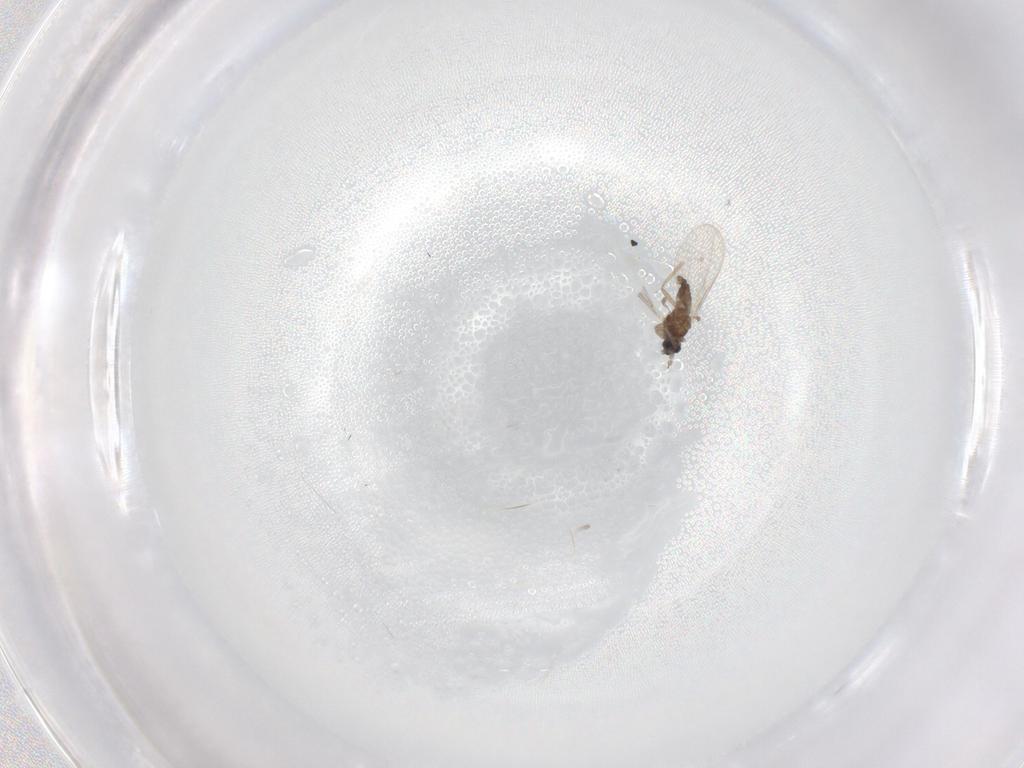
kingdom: Animalia
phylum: Arthropoda
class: Insecta
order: Diptera
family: Cecidomyiidae
